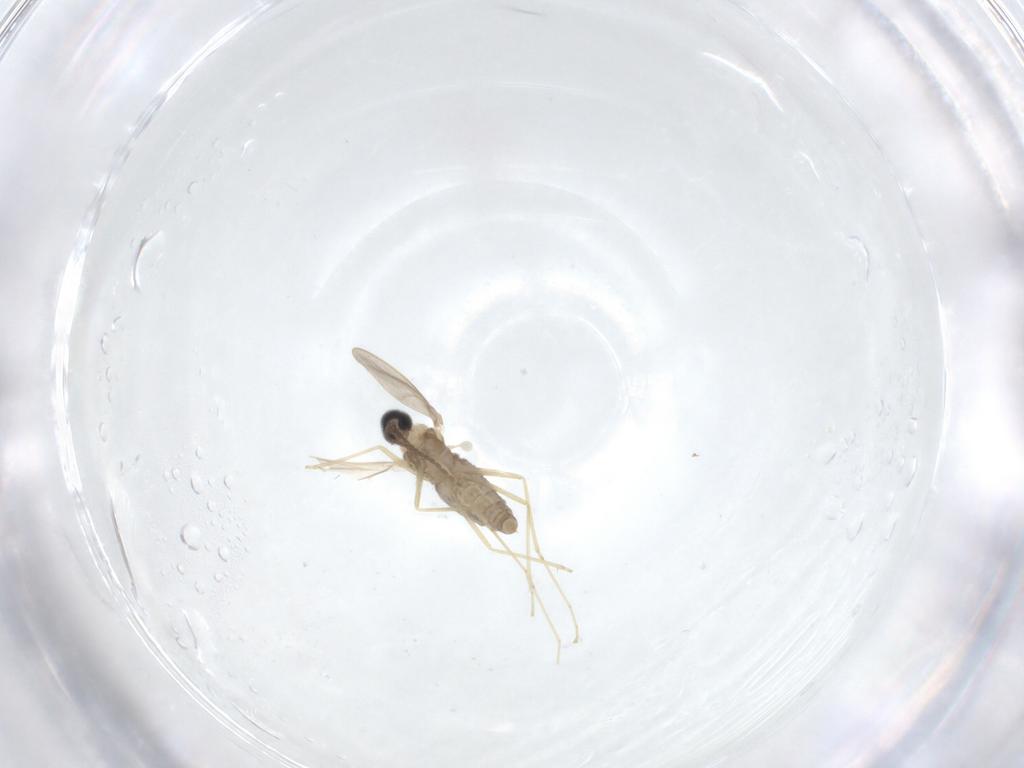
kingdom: Animalia
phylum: Arthropoda
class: Insecta
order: Diptera
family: Cecidomyiidae
